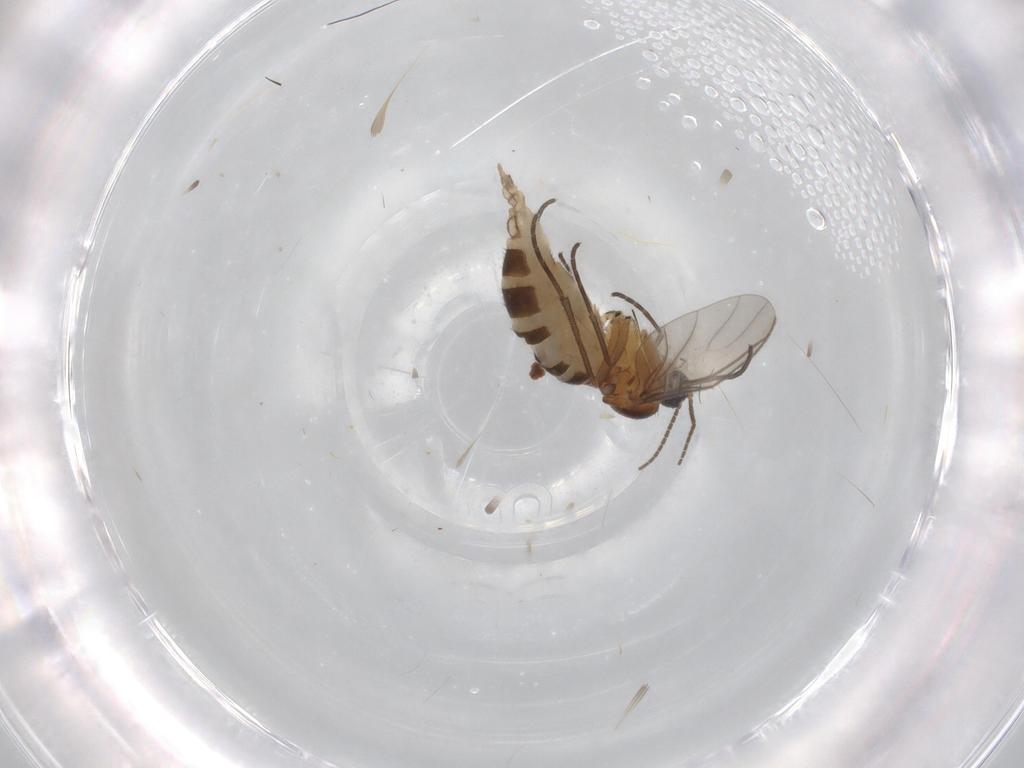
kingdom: Animalia
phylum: Arthropoda
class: Insecta
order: Diptera
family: Sciaridae
